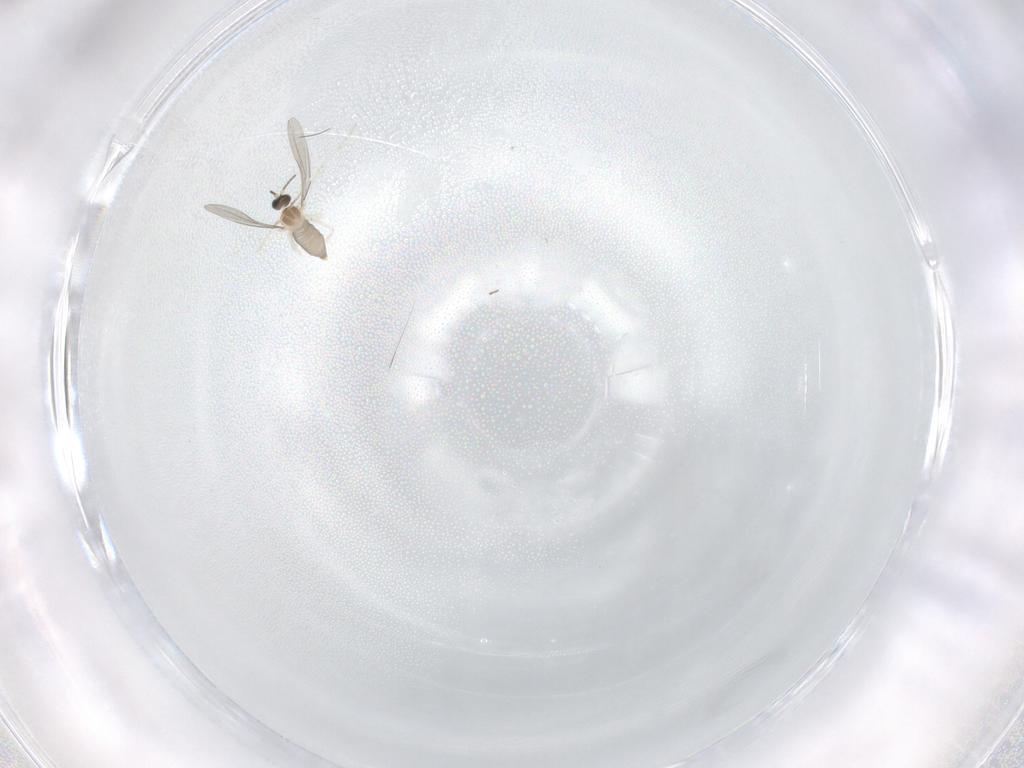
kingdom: Animalia
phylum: Arthropoda
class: Insecta
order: Diptera
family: Phoridae
